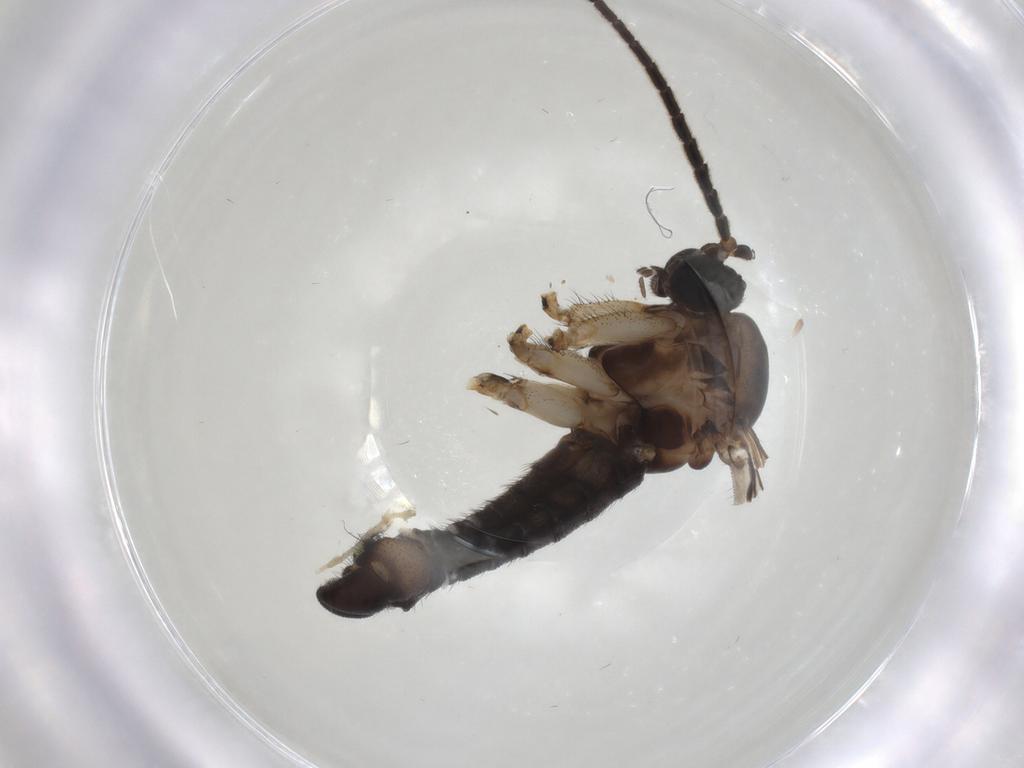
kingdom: Animalia
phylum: Arthropoda
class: Insecta
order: Diptera
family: Sciaridae
